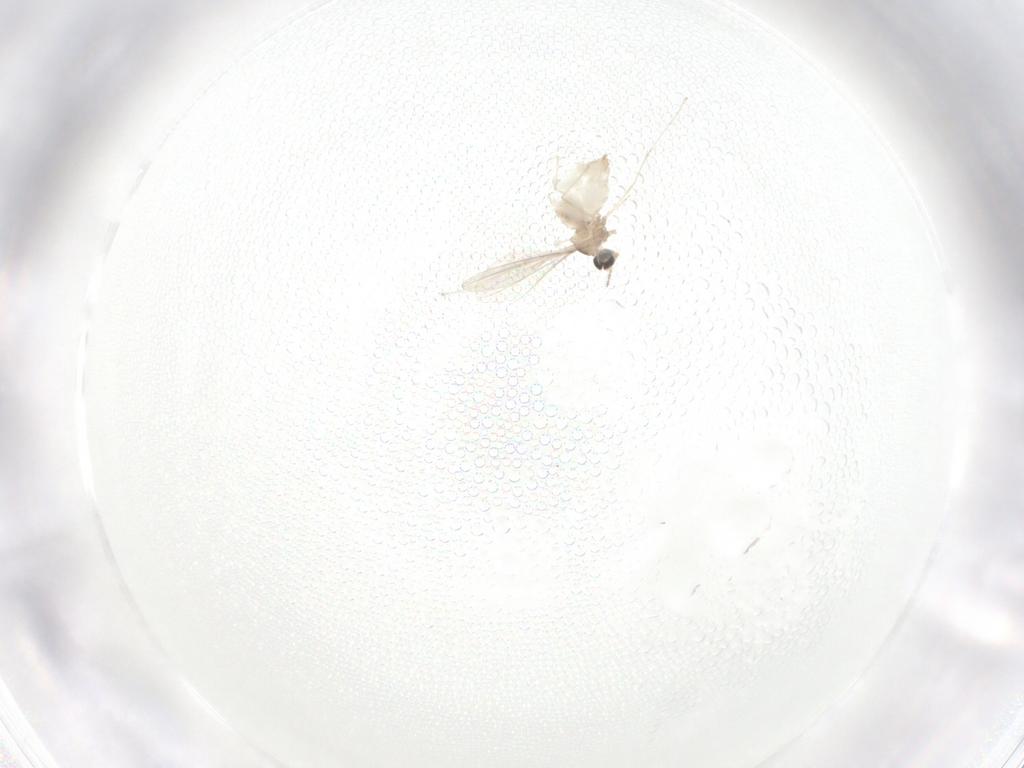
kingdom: Animalia
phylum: Arthropoda
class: Insecta
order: Diptera
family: Cecidomyiidae
